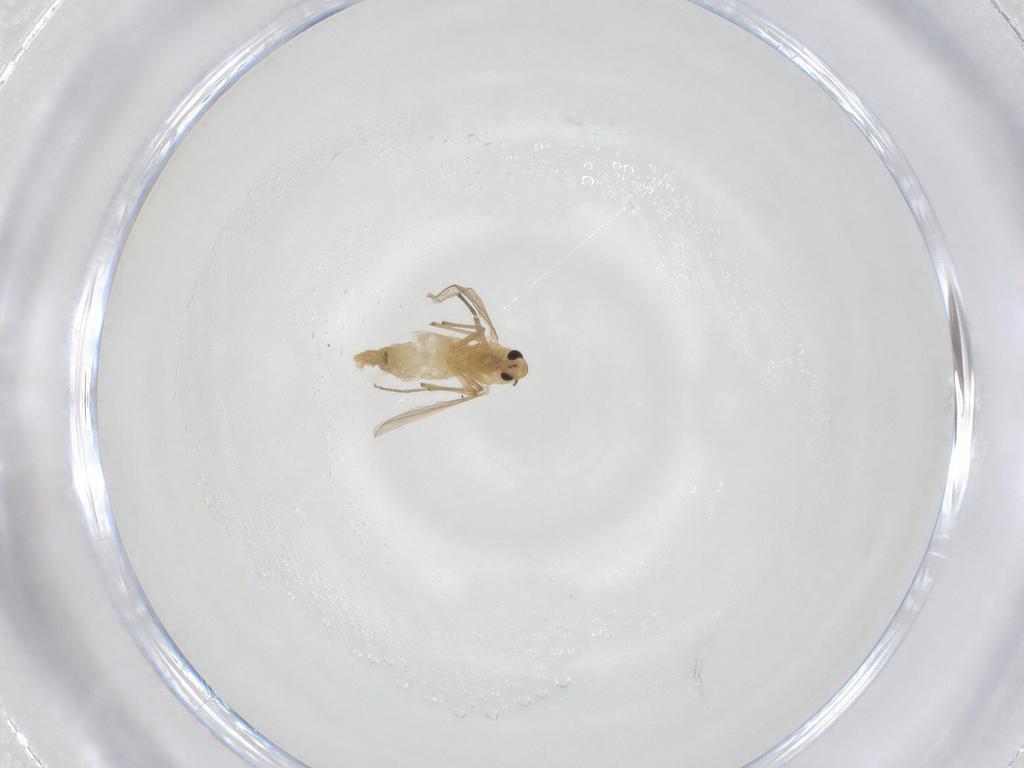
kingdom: Animalia
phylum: Arthropoda
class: Insecta
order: Diptera
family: Chironomidae
